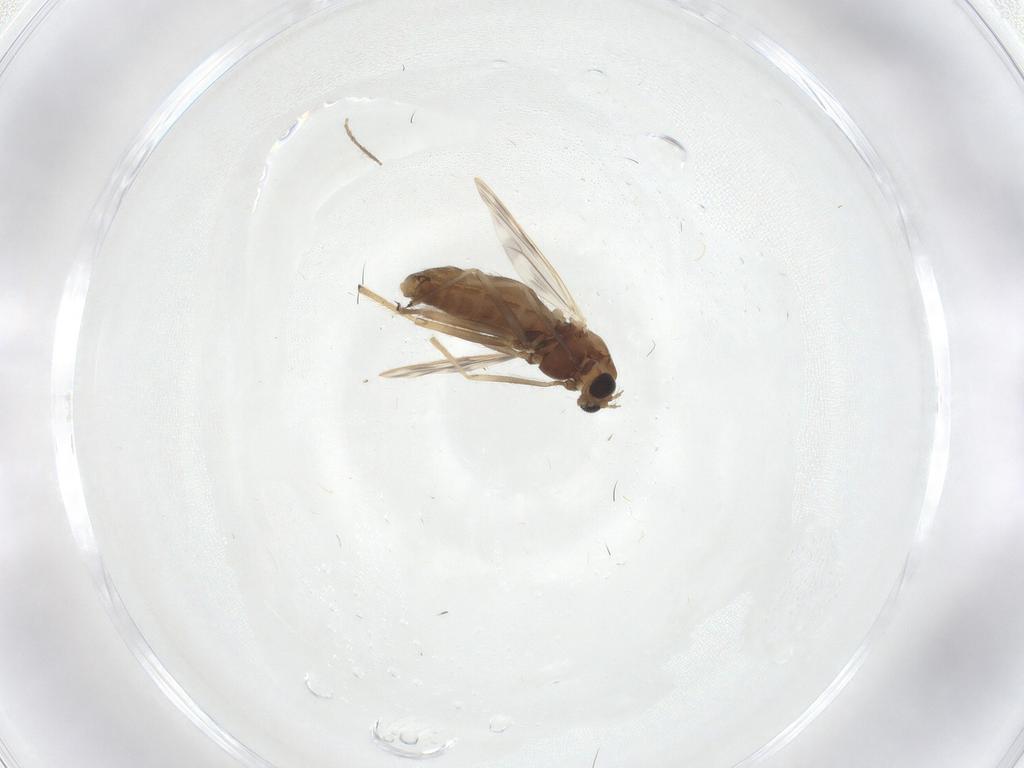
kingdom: Animalia
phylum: Arthropoda
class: Insecta
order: Diptera
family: Chironomidae
